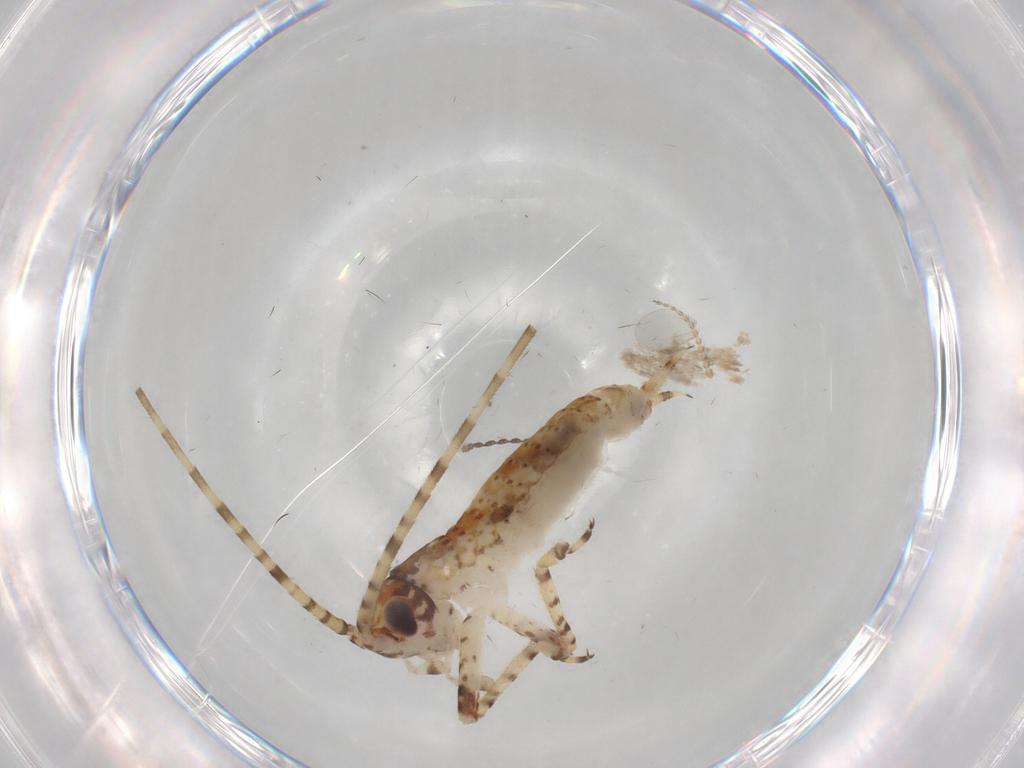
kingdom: Animalia
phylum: Arthropoda
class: Insecta
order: Orthoptera
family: Gryllidae
